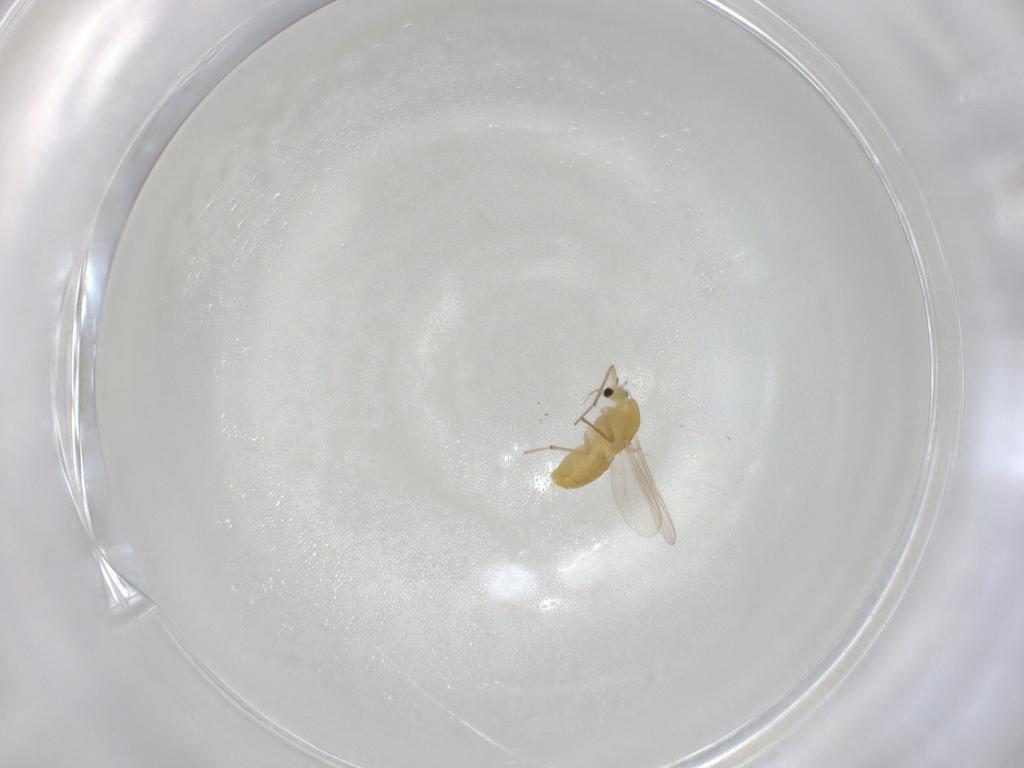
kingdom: Animalia
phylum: Arthropoda
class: Insecta
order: Diptera
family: Chironomidae
